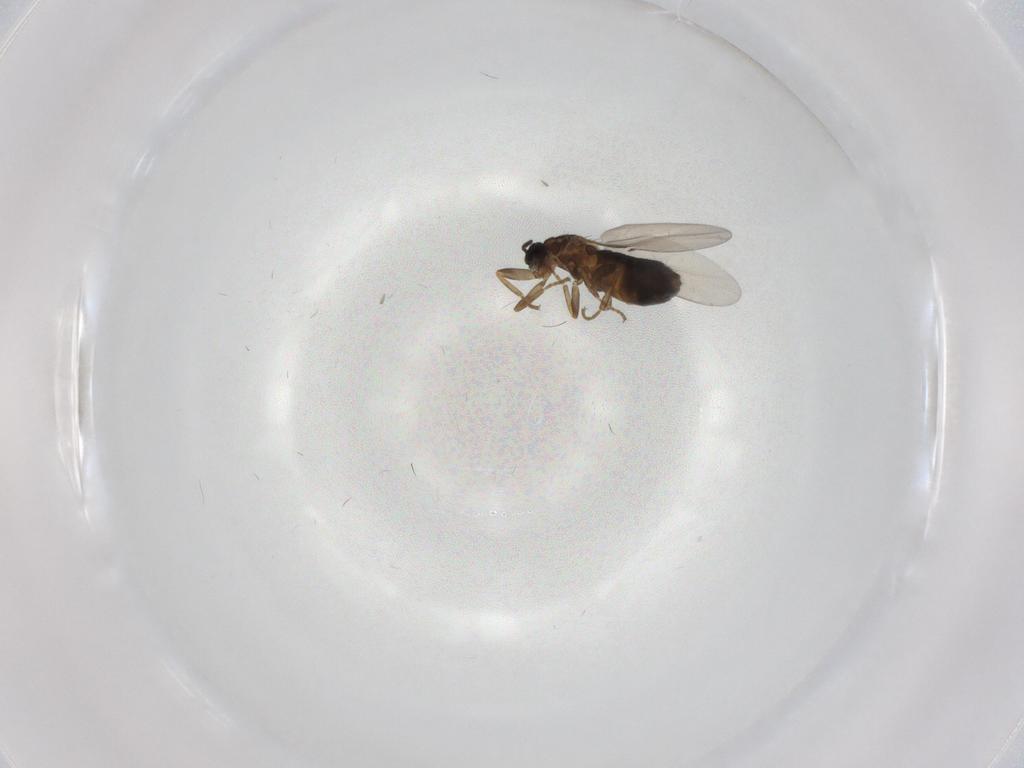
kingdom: Animalia
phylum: Arthropoda
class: Insecta
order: Diptera
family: Scatopsidae
